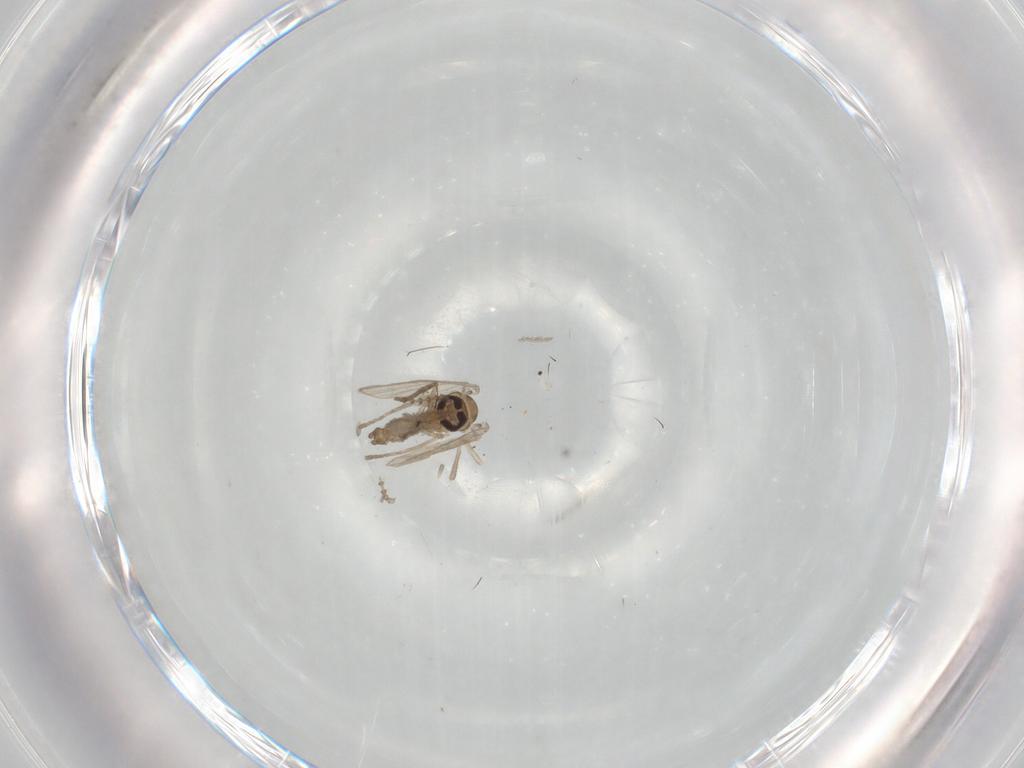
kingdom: Animalia
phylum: Arthropoda
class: Insecta
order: Diptera
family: Psychodidae
